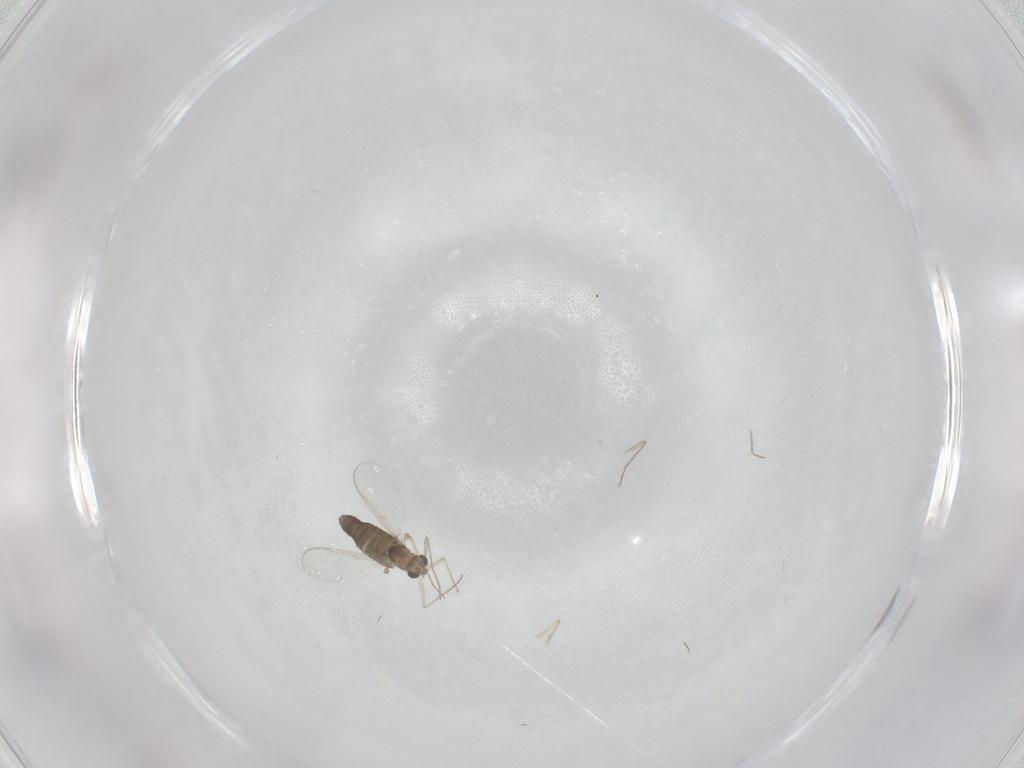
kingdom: Animalia
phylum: Arthropoda
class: Insecta
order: Diptera
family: Chironomidae
